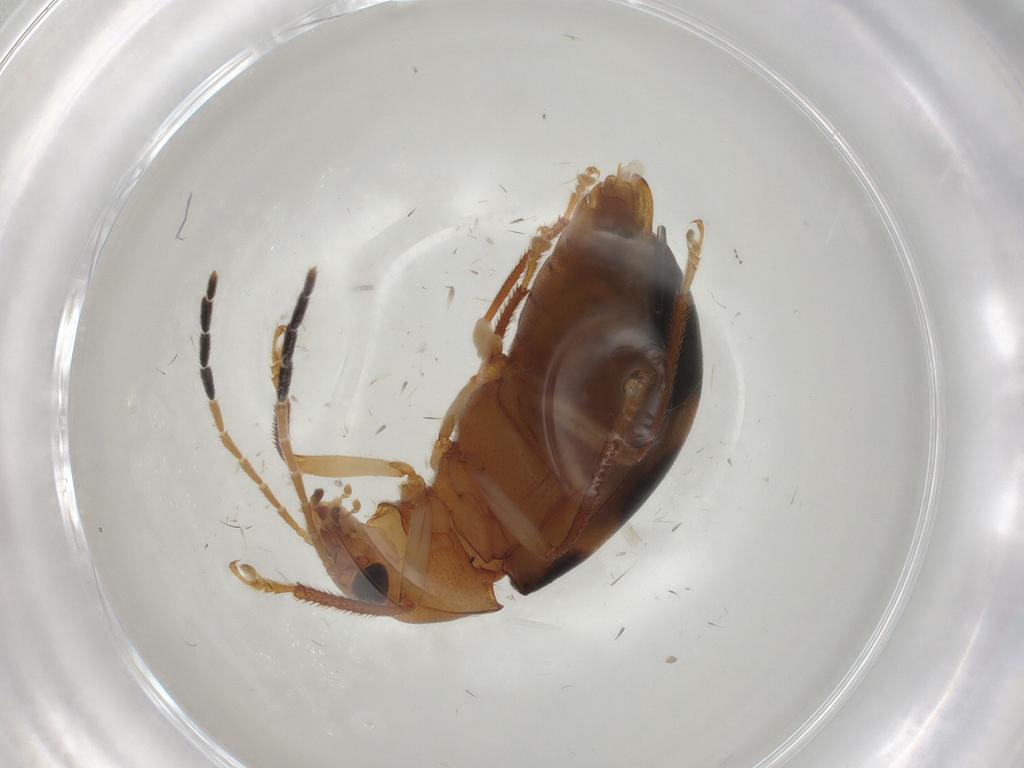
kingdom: Animalia
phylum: Arthropoda
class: Insecta
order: Coleoptera
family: Ptilodactylidae
